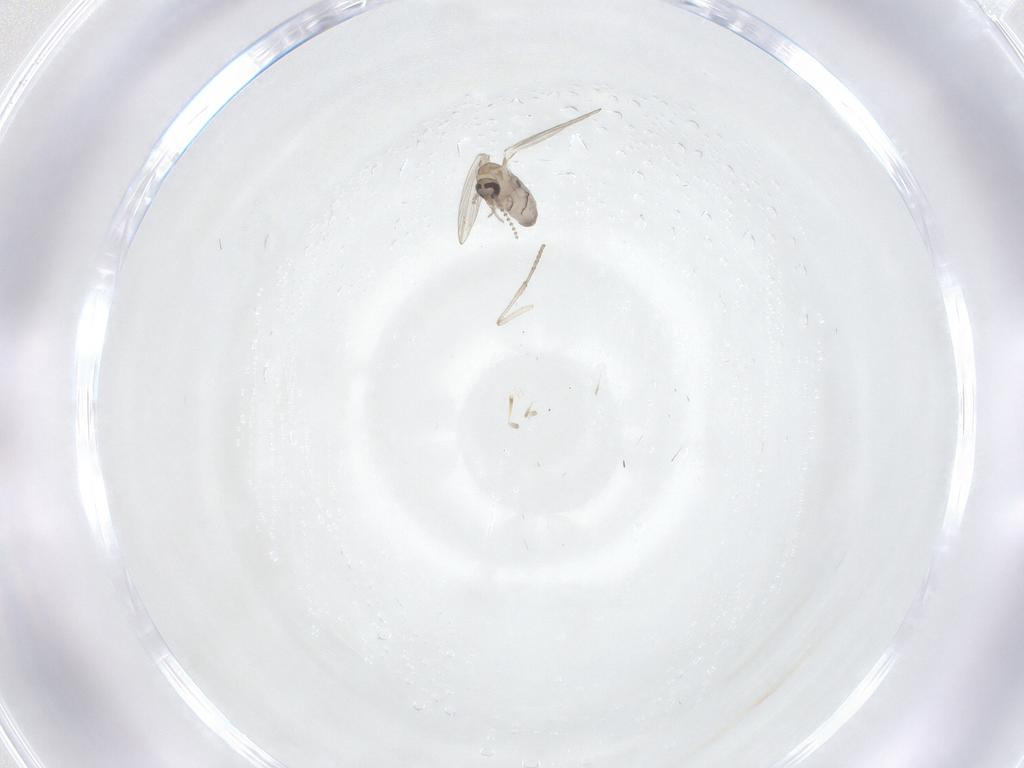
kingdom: Animalia
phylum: Arthropoda
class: Insecta
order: Diptera
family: Psychodidae
